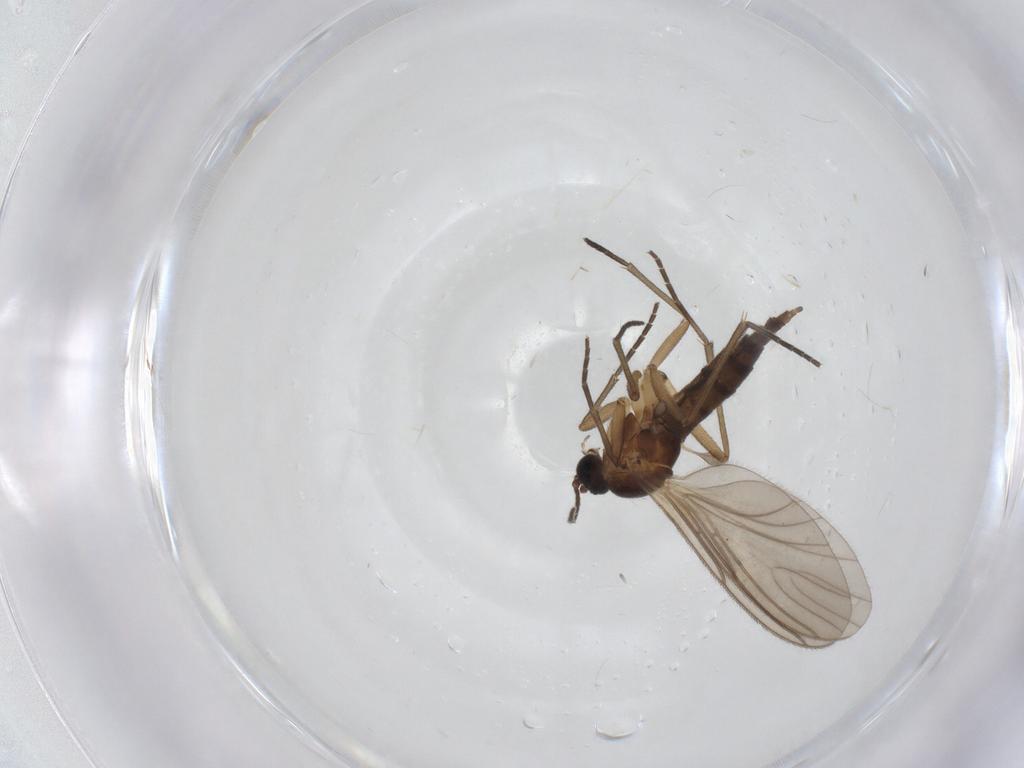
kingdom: Animalia
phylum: Arthropoda
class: Insecta
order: Diptera
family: Sciaridae
